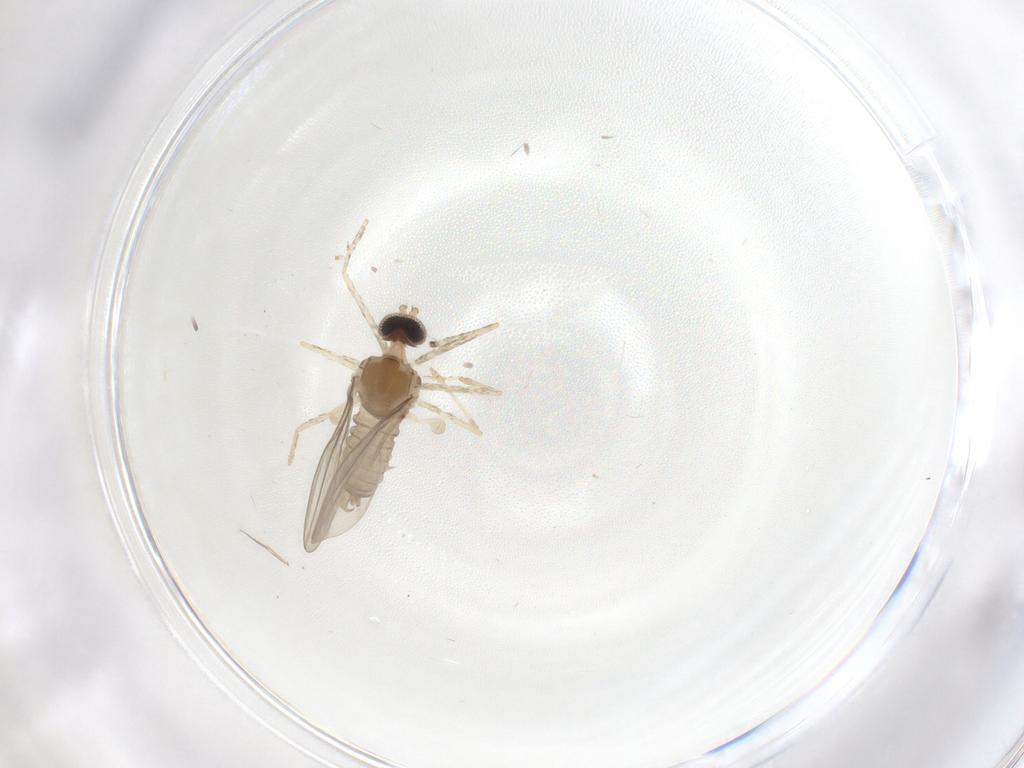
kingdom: Animalia
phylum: Arthropoda
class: Insecta
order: Diptera
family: Cecidomyiidae
